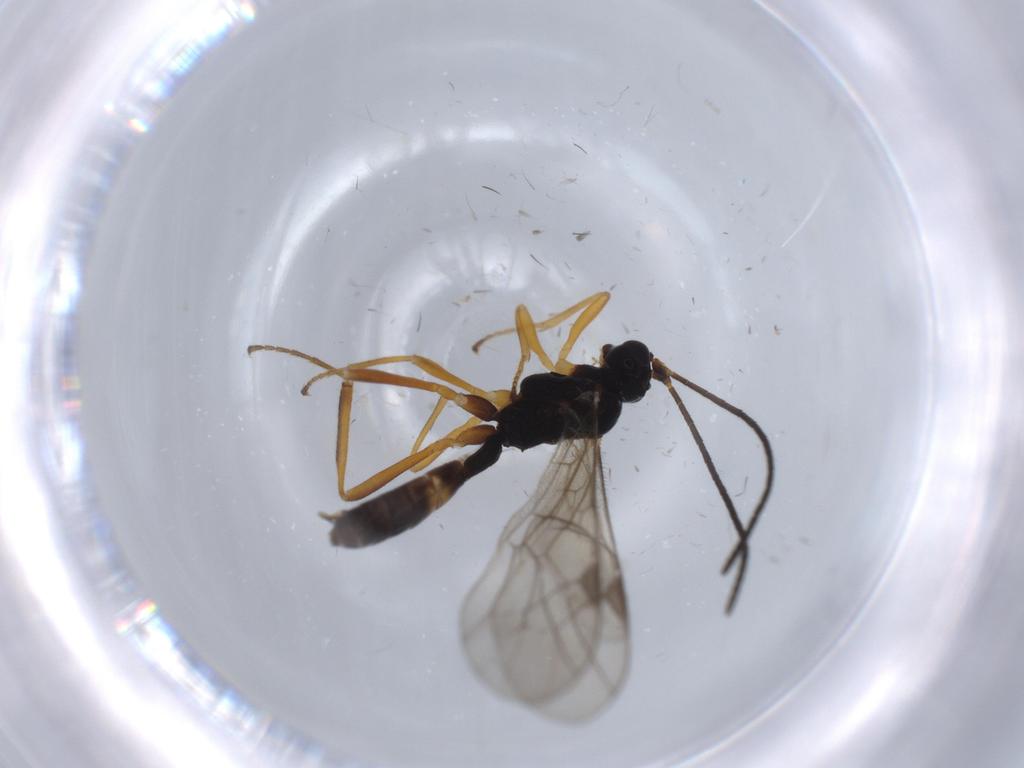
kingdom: Animalia
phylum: Arthropoda
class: Insecta
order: Hymenoptera
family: Ichneumonidae
